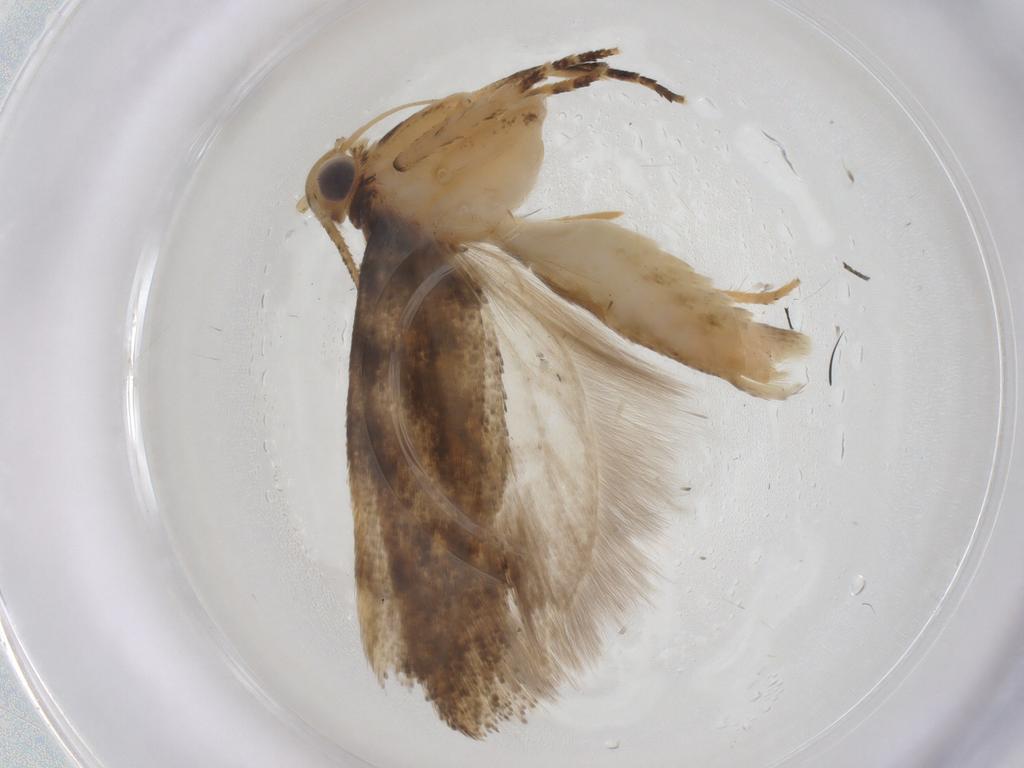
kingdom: Animalia
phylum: Arthropoda
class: Insecta
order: Lepidoptera
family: Gelechiidae
